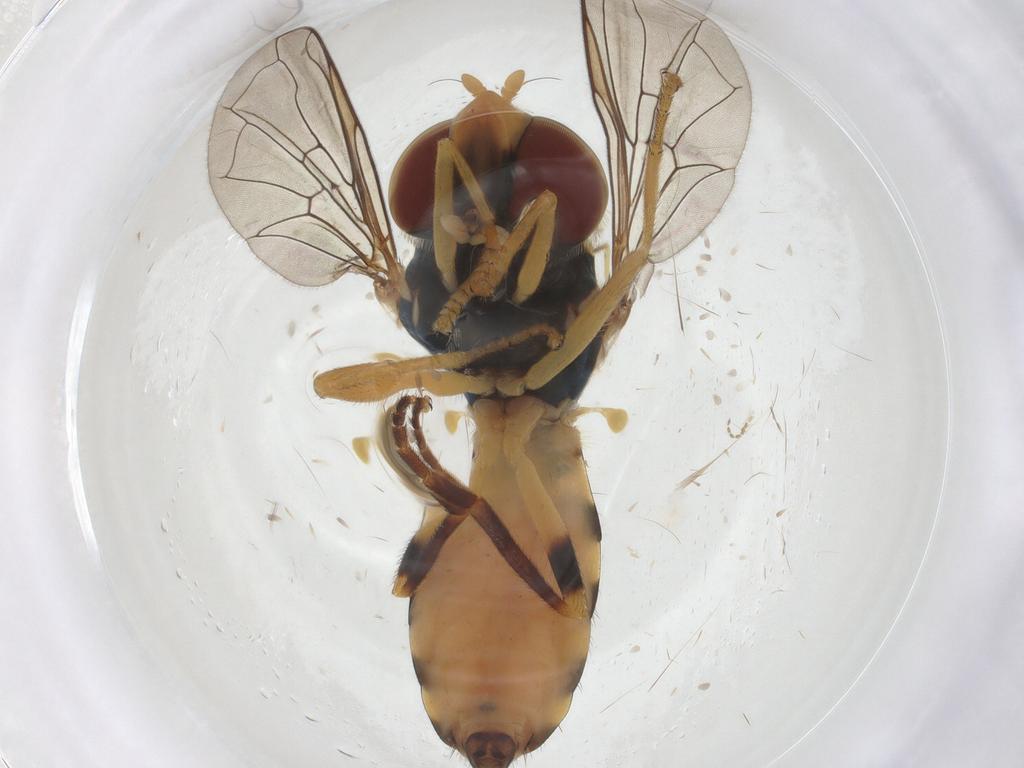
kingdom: Animalia
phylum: Arthropoda
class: Insecta
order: Diptera
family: Syrphidae
